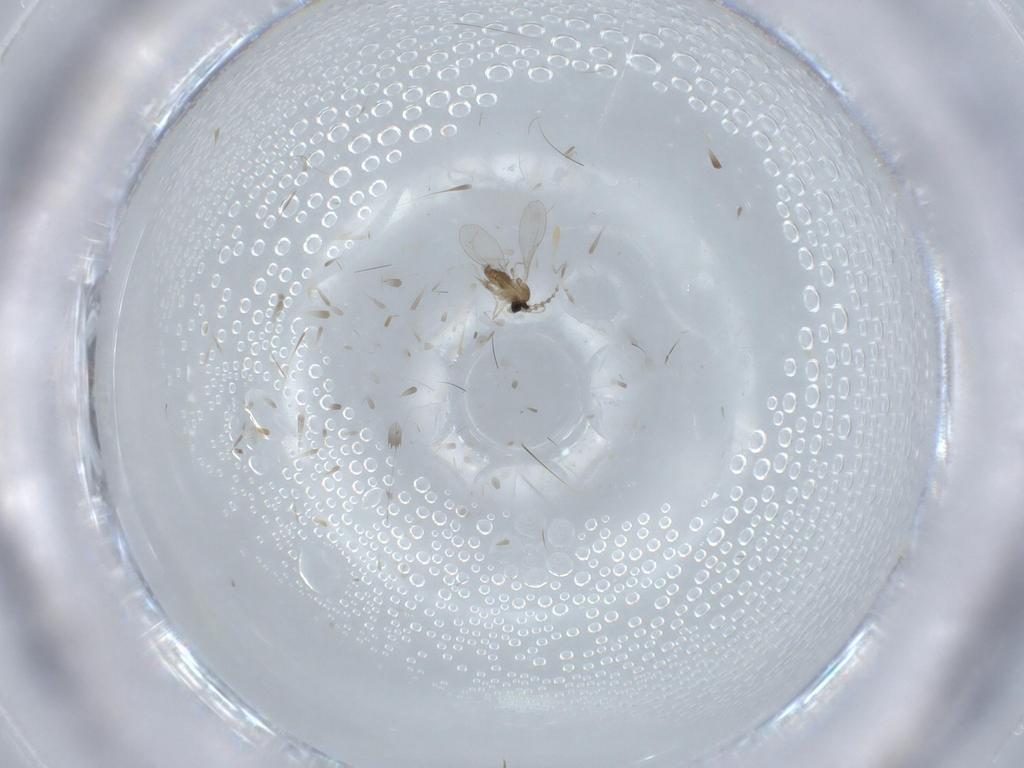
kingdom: Animalia
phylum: Arthropoda
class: Insecta
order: Diptera
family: Cecidomyiidae
